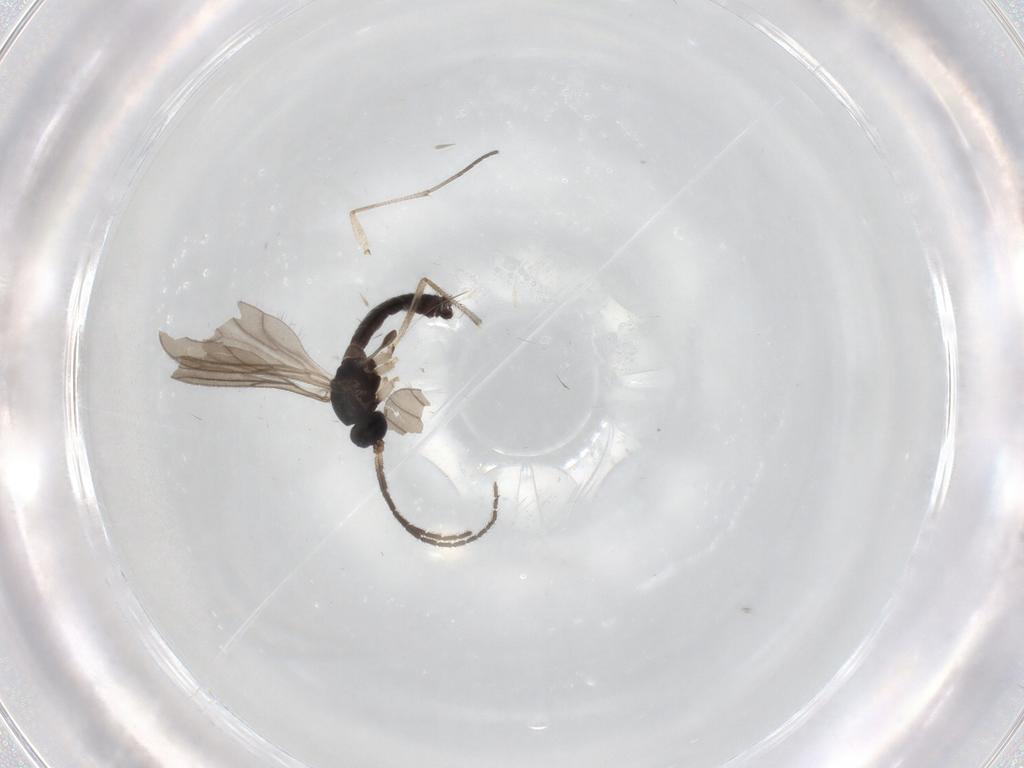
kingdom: Animalia
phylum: Arthropoda
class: Insecta
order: Diptera
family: Sciaridae
